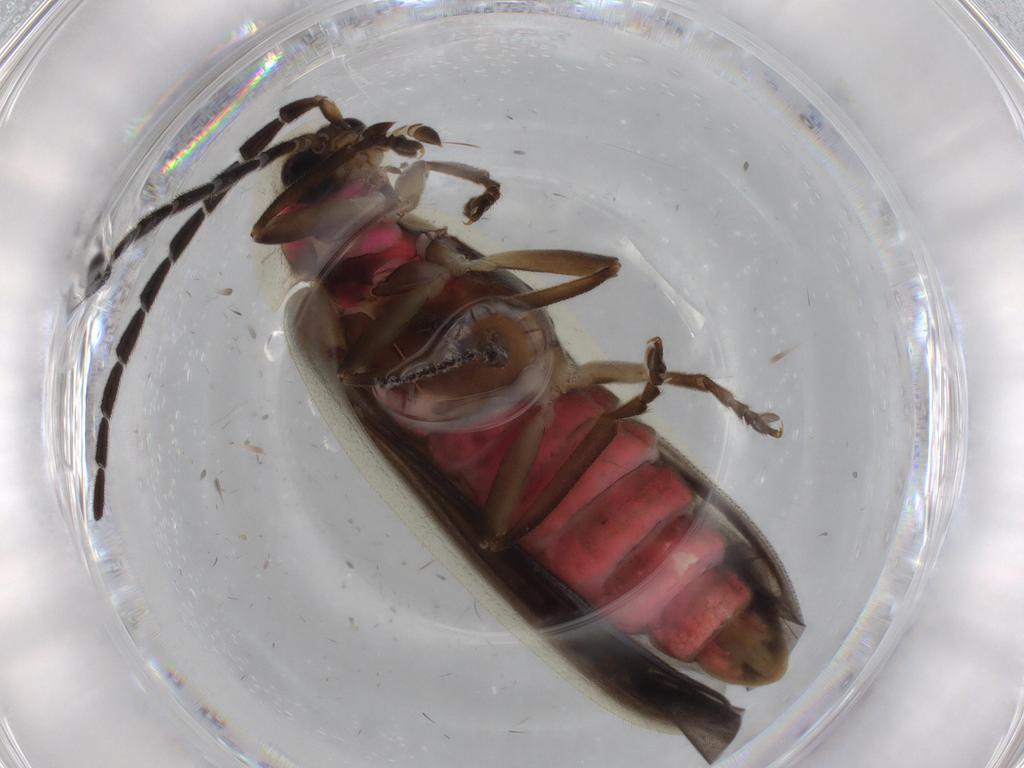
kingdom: Animalia
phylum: Arthropoda
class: Insecta
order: Coleoptera
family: Lampyridae
